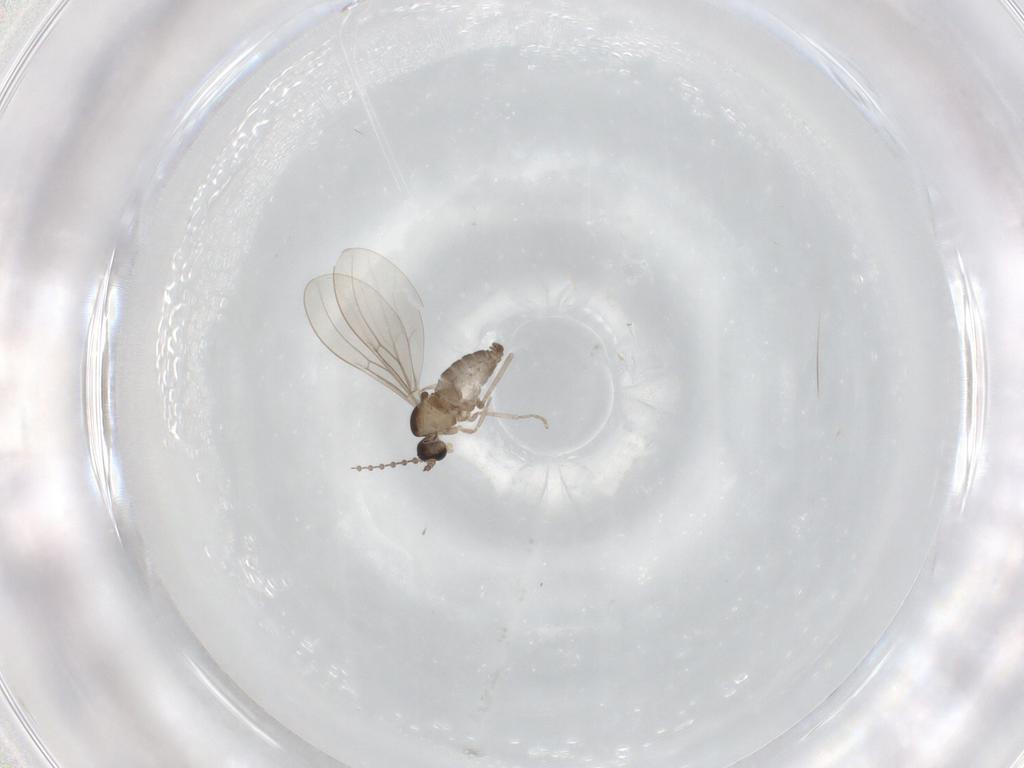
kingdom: Animalia
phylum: Arthropoda
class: Insecta
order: Diptera
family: Cecidomyiidae
